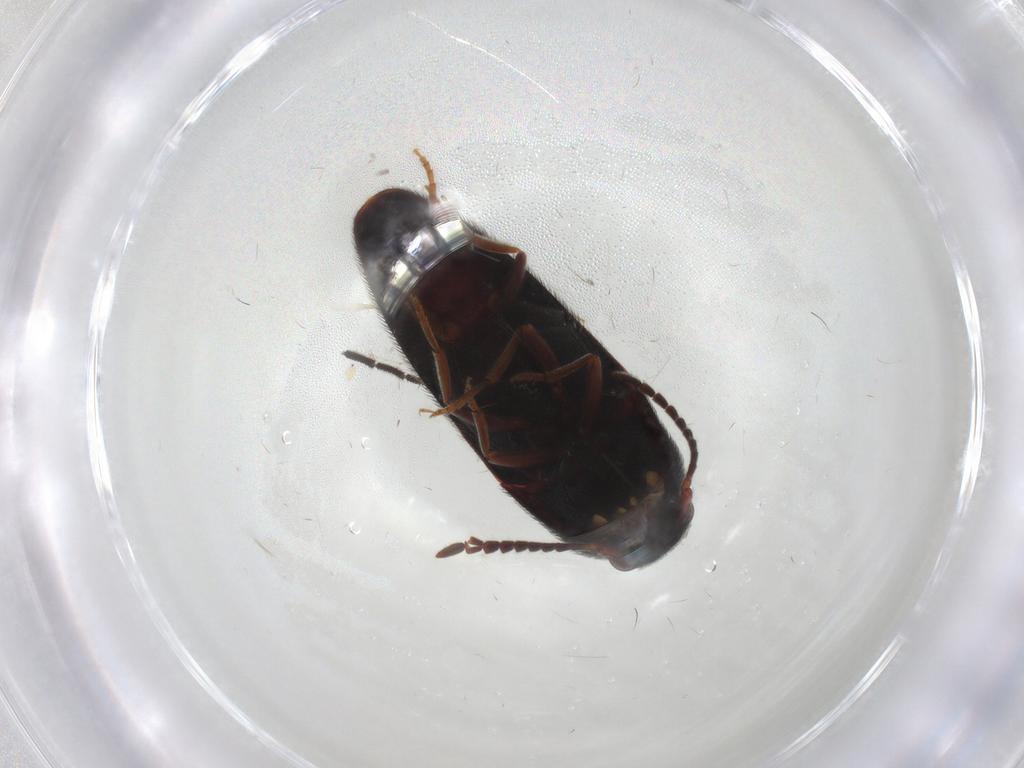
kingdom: Animalia
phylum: Arthropoda
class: Insecta
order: Coleoptera
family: Eucnemidae
